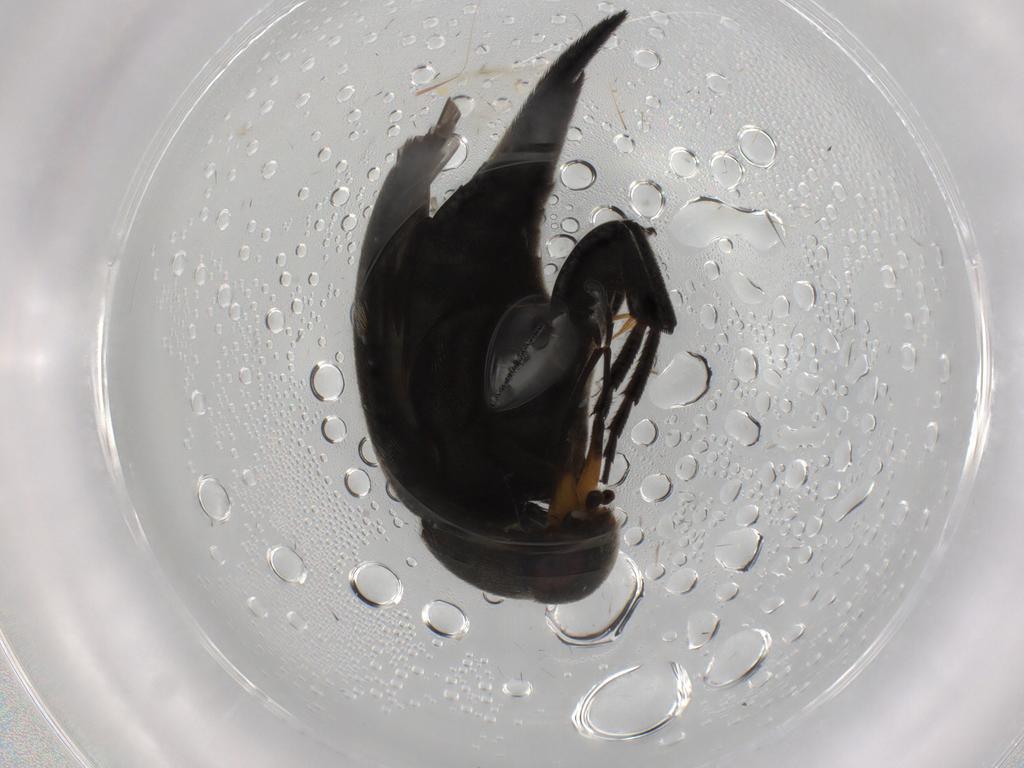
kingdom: Animalia
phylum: Arthropoda
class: Insecta
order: Coleoptera
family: Mordellidae
